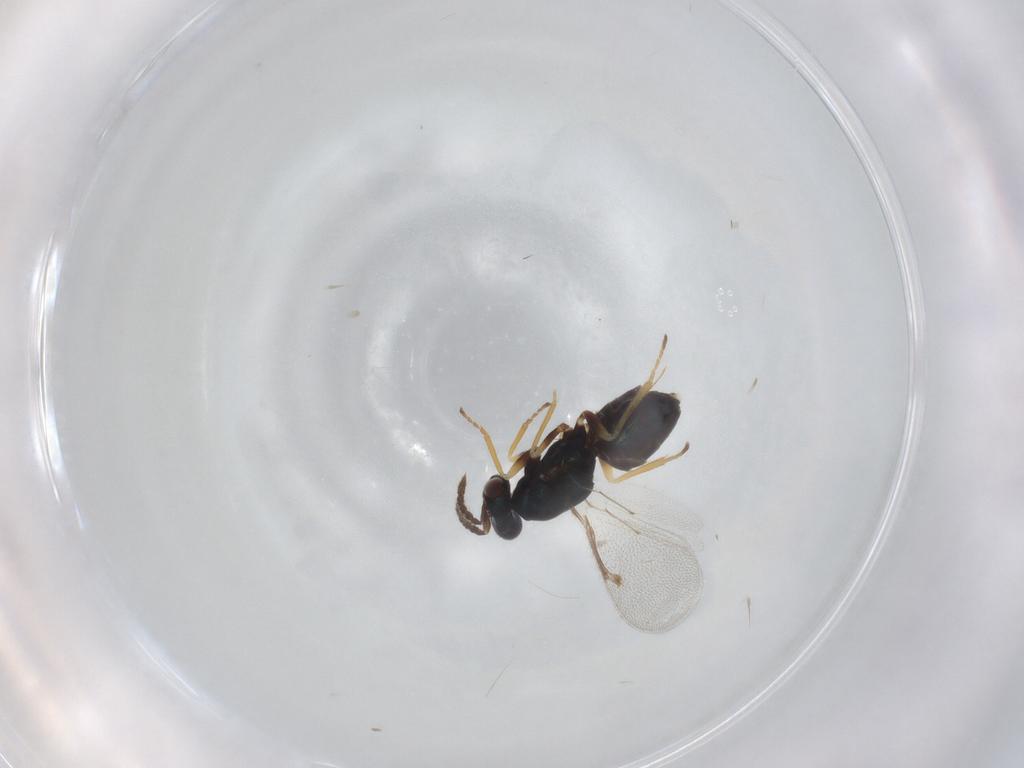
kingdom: Animalia
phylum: Arthropoda
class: Insecta
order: Hymenoptera
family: Eulophidae
